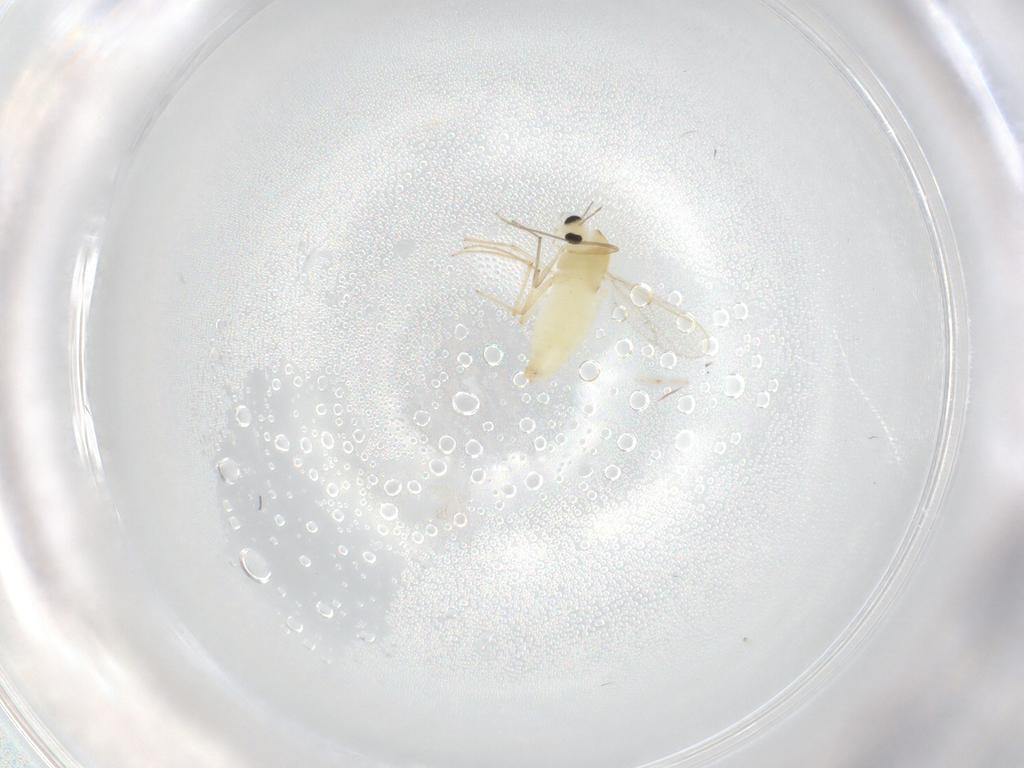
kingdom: Animalia
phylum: Arthropoda
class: Insecta
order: Diptera
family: Chironomidae
